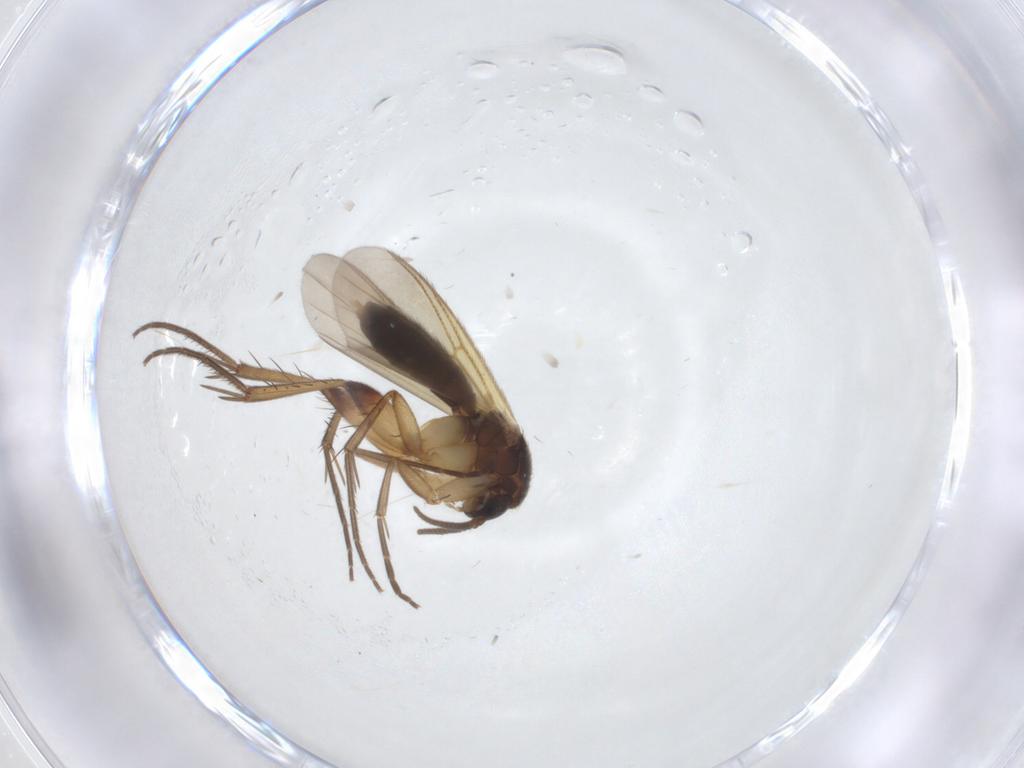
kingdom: Animalia
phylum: Arthropoda
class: Insecta
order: Diptera
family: Mycetophilidae
